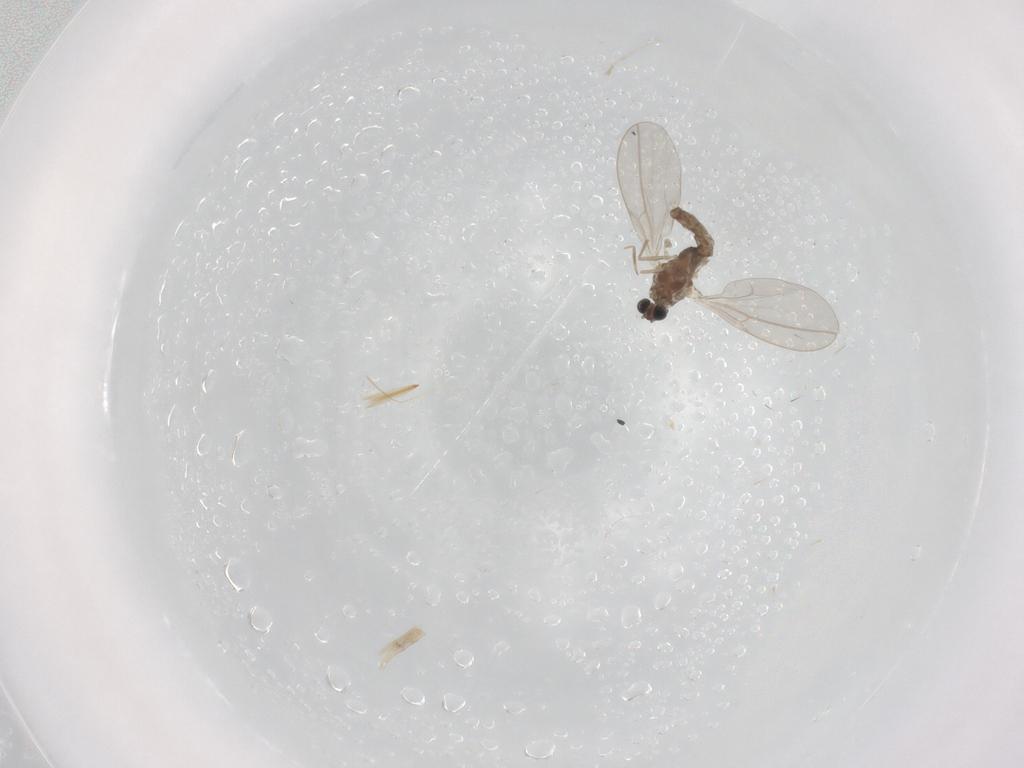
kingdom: Animalia
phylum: Arthropoda
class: Insecta
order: Diptera
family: Cecidomyiidae
